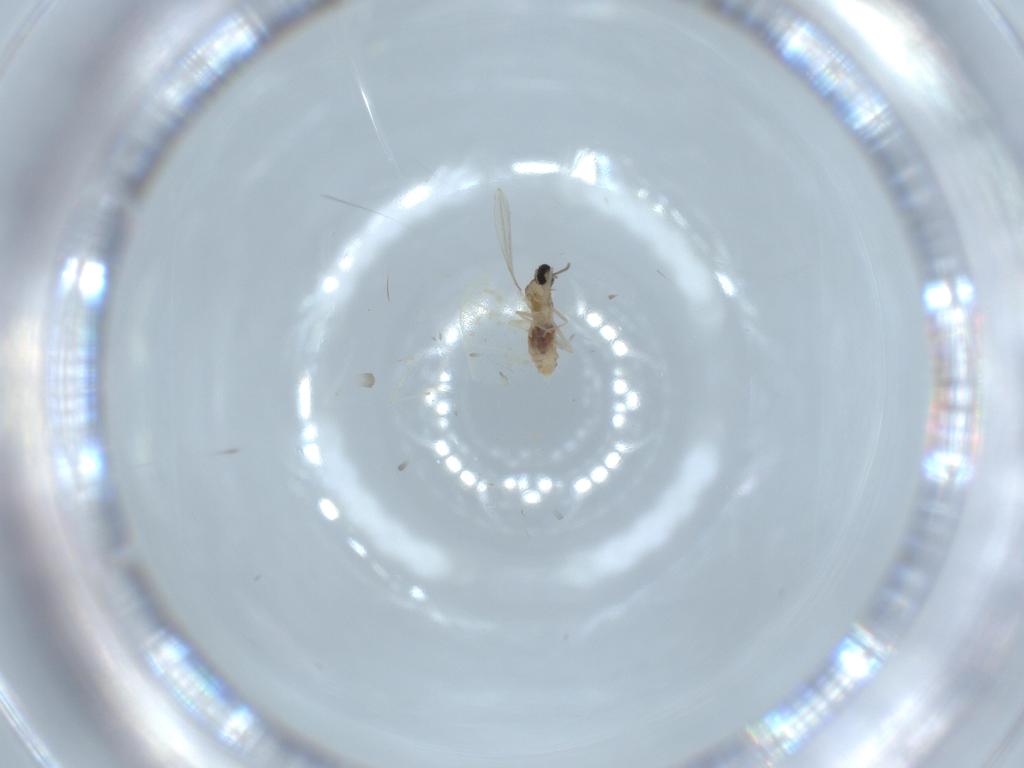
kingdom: Animalia
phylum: Arthropoda
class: Insecta
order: Diptera
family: Cecidomyiidae
